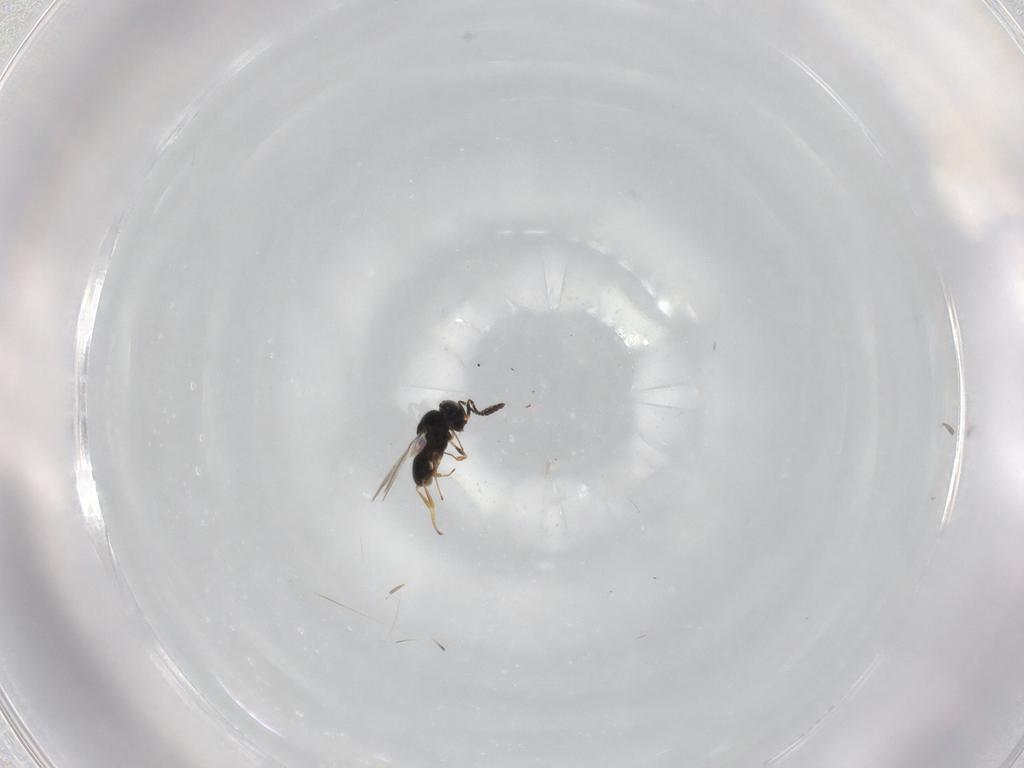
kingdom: Animalia
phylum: Arthropoda
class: Insecta
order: Hymenoptera
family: Scelionidae
